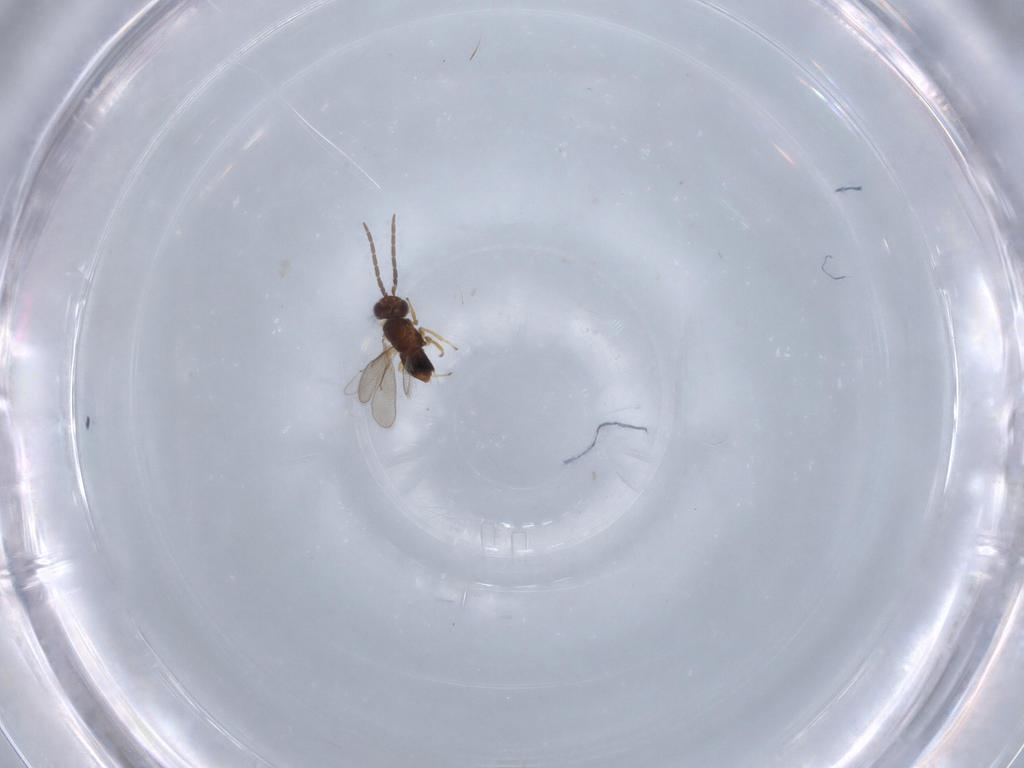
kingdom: Animalia
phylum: Arthropoda
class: Insecta
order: Hymenoptera
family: Aphelinidae
